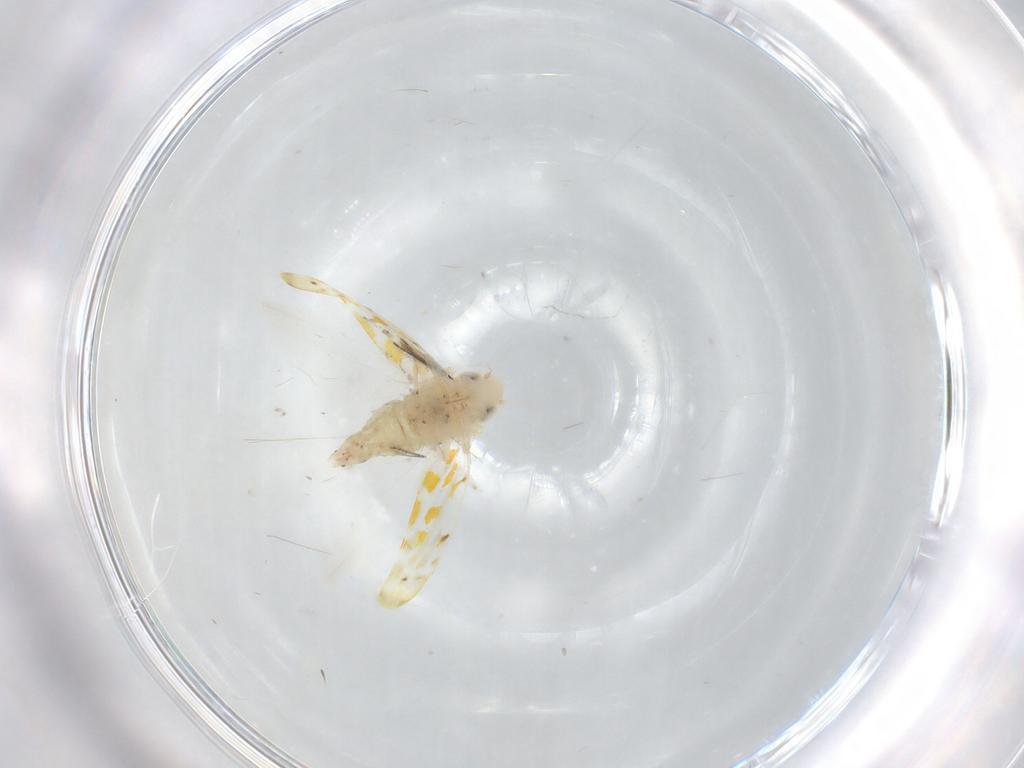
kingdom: Animalia
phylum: Arthropoda
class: Insecta
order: Hemiptera
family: Cicadellidae
